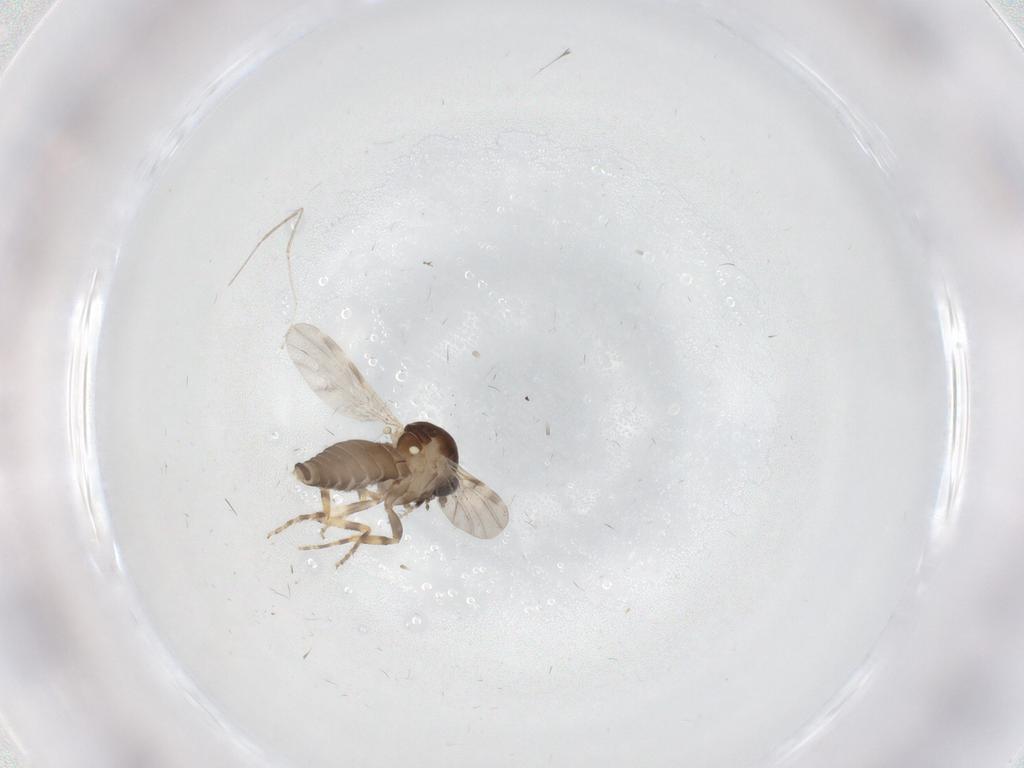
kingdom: Animalia
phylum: Arthropoda
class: Insecta
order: Diptera
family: Ceratopogonidae
